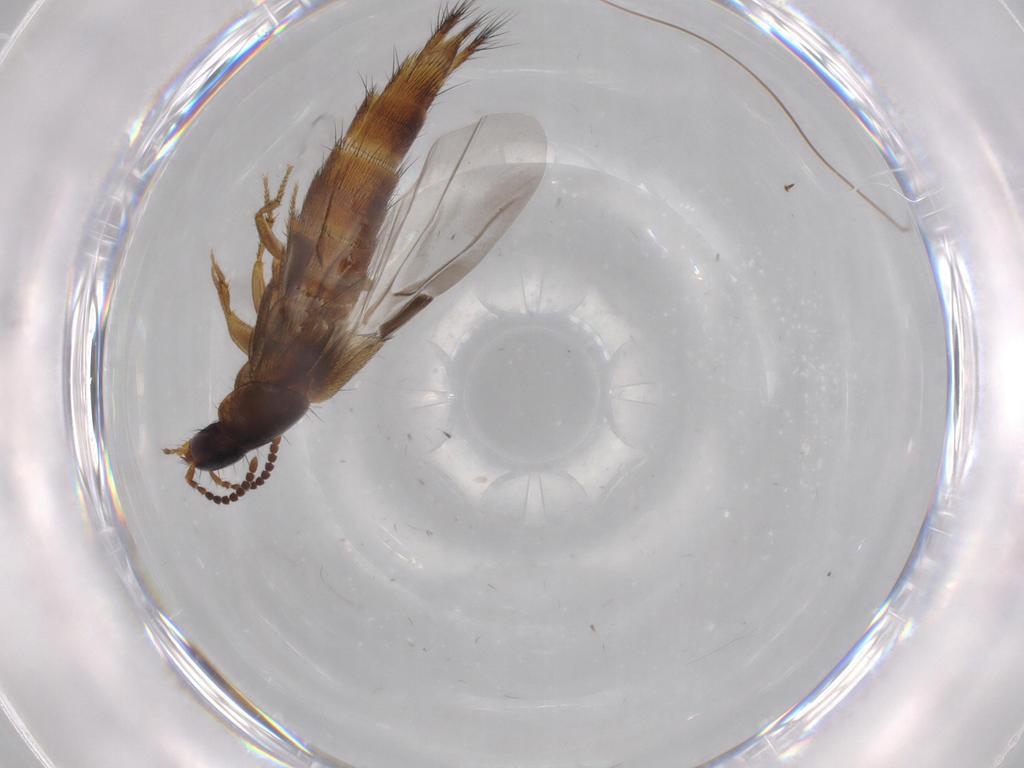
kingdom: Animalia
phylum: Arthropoda
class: Insecta
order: Coleoptera
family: Staphylinidae
